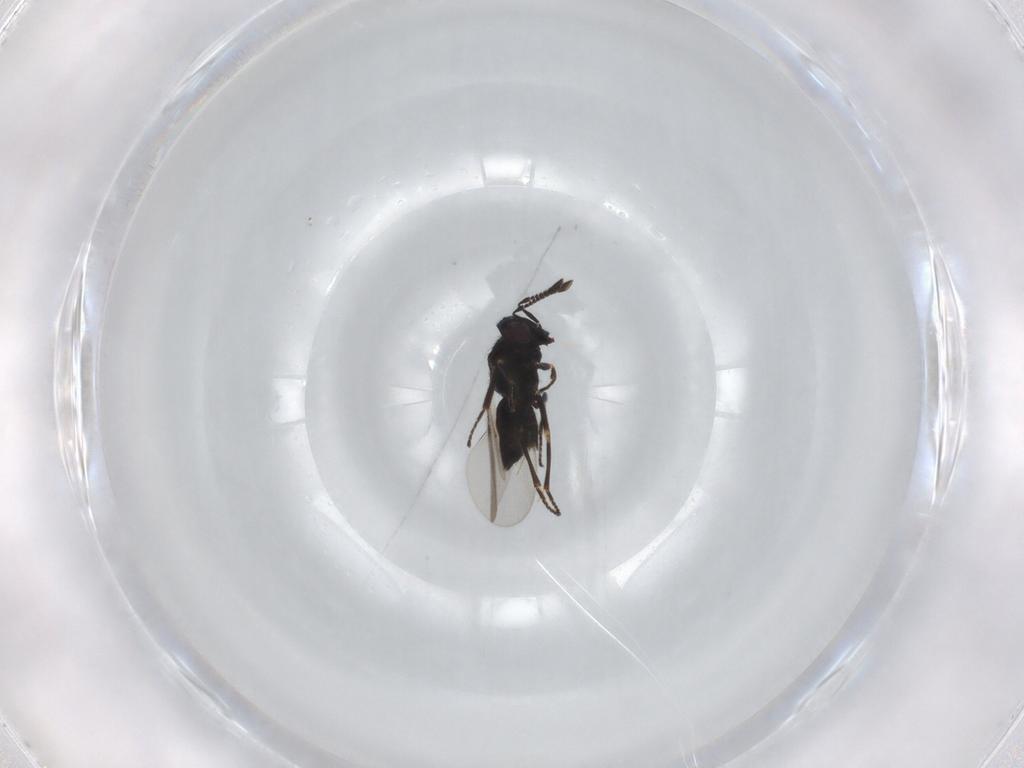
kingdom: Animalia
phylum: Arthropoda
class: Insecta
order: Hymenoptera
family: Encyrtidae
